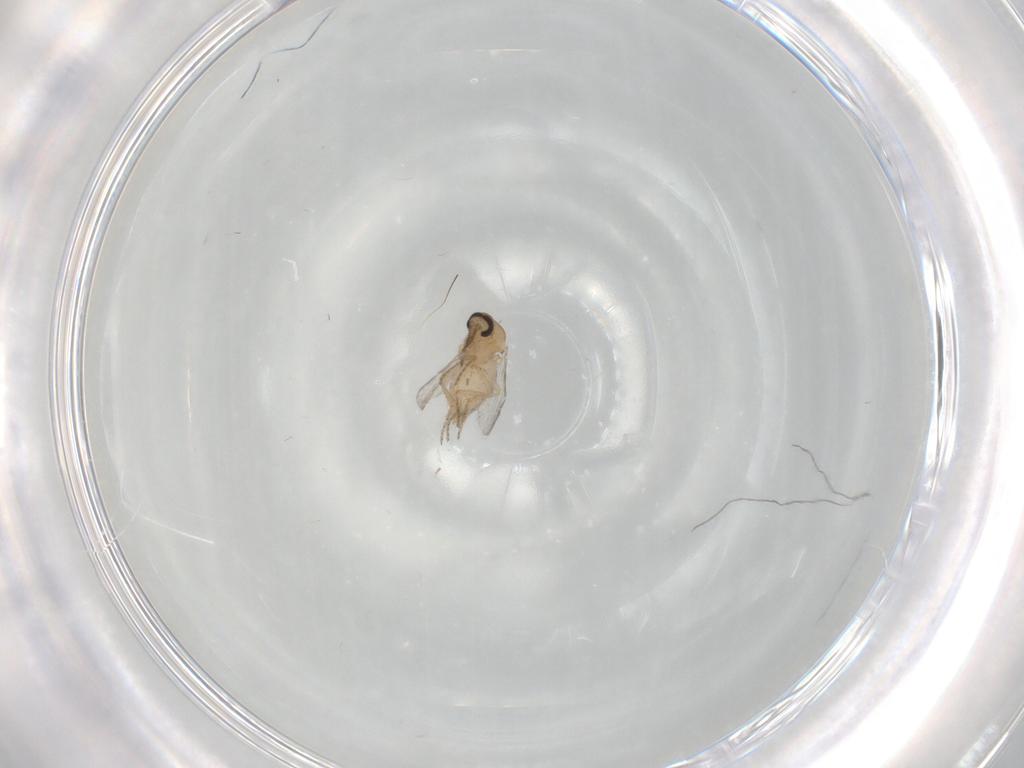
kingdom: Animalia
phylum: Arthropoda
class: Insecta
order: Diptera
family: Ceratopogonidae
